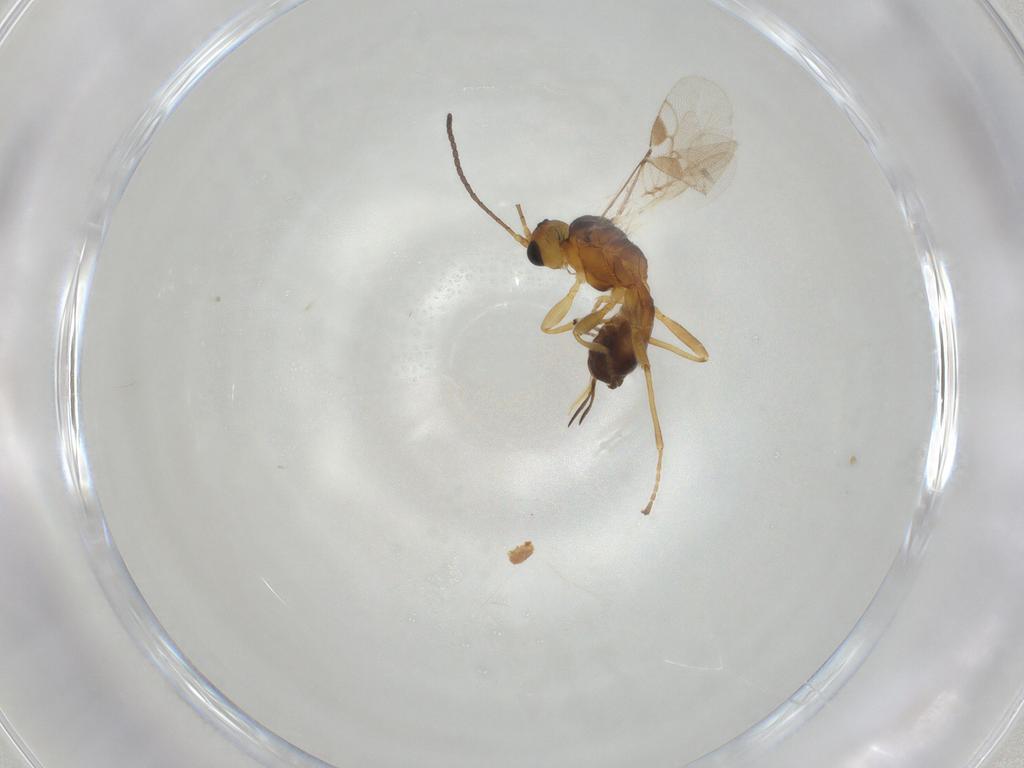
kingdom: Animalia
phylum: Arthropoda
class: Insecta
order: Hymenoptera
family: Braconidae
